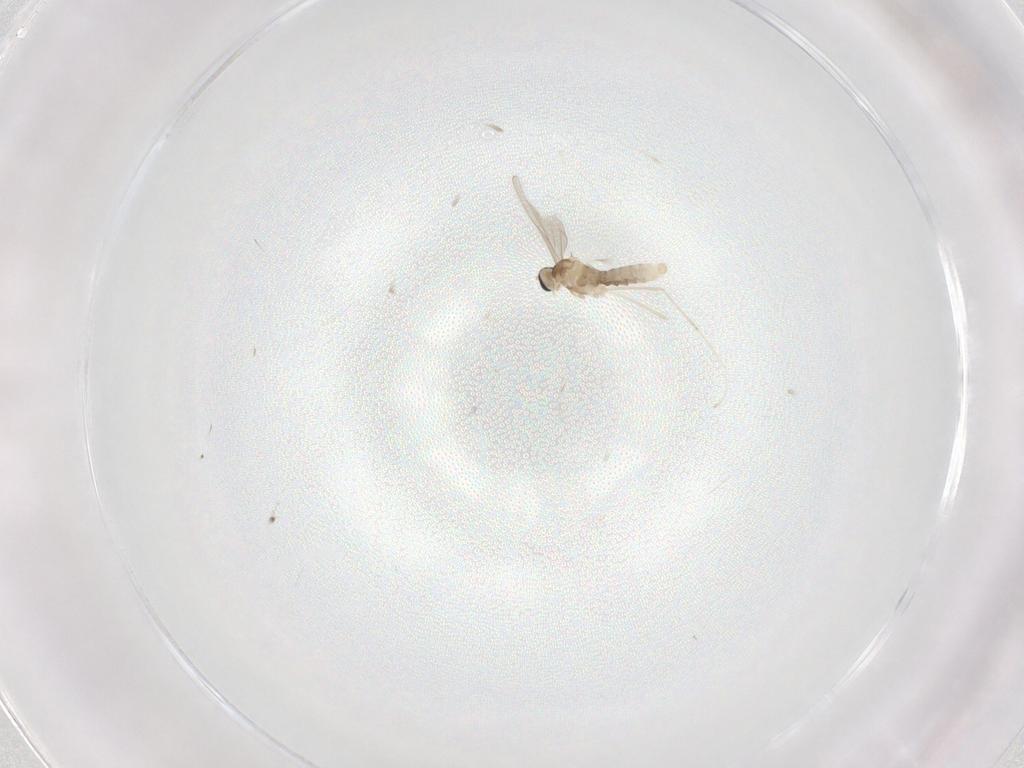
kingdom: Animalia
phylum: Arthropoda
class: Insecta
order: Diptera
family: Cecidomyiidae
